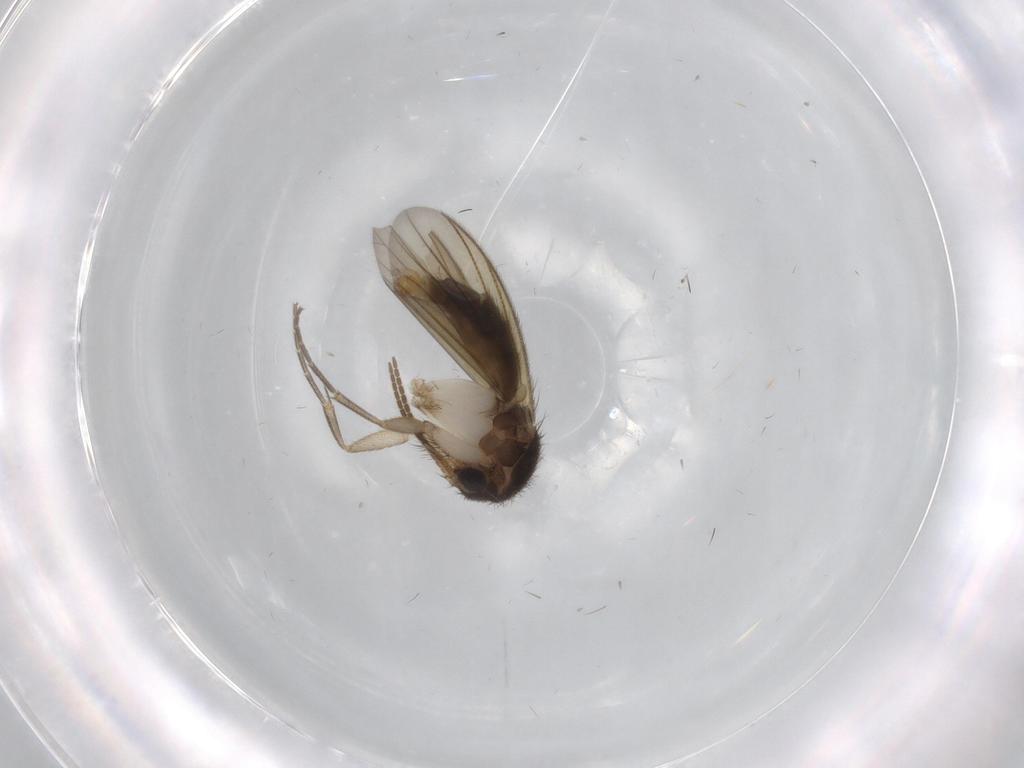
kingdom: Animalia
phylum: Arthropoda
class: Insecta
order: Diptera
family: Mycetophilidae
